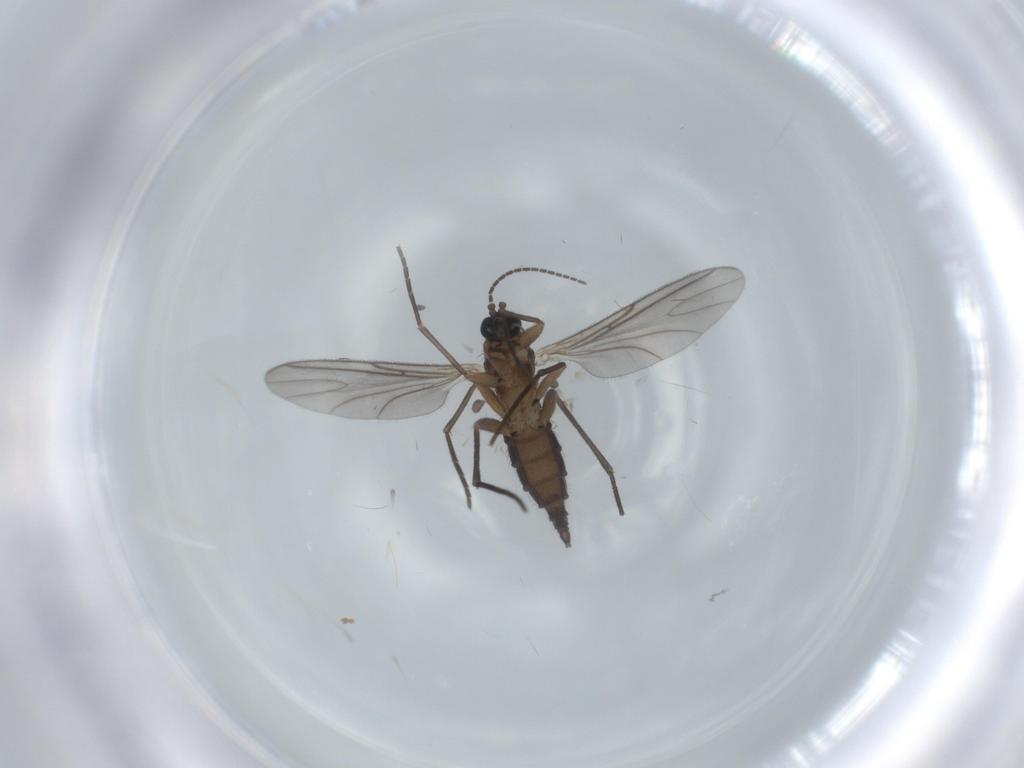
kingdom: Animalia
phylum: Arthropoda
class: Insecta
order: Diptera
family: Sciaridae
